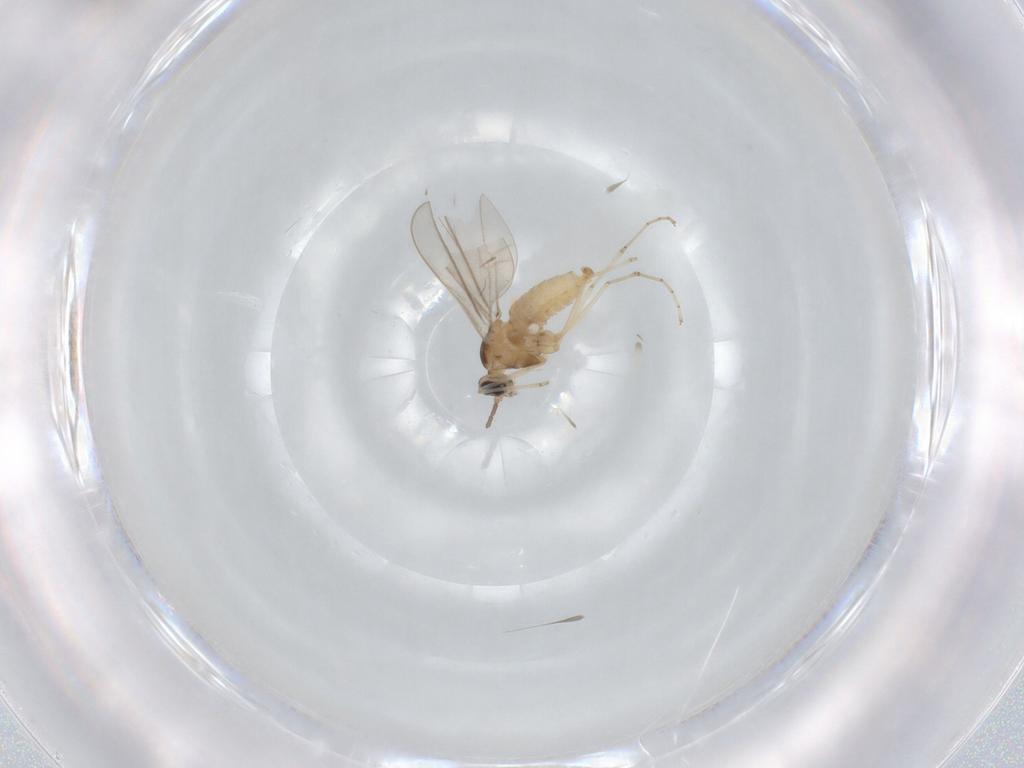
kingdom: Animalia
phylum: Arthropoda
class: Insecta
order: Diptera
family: Cecidomyiidae
